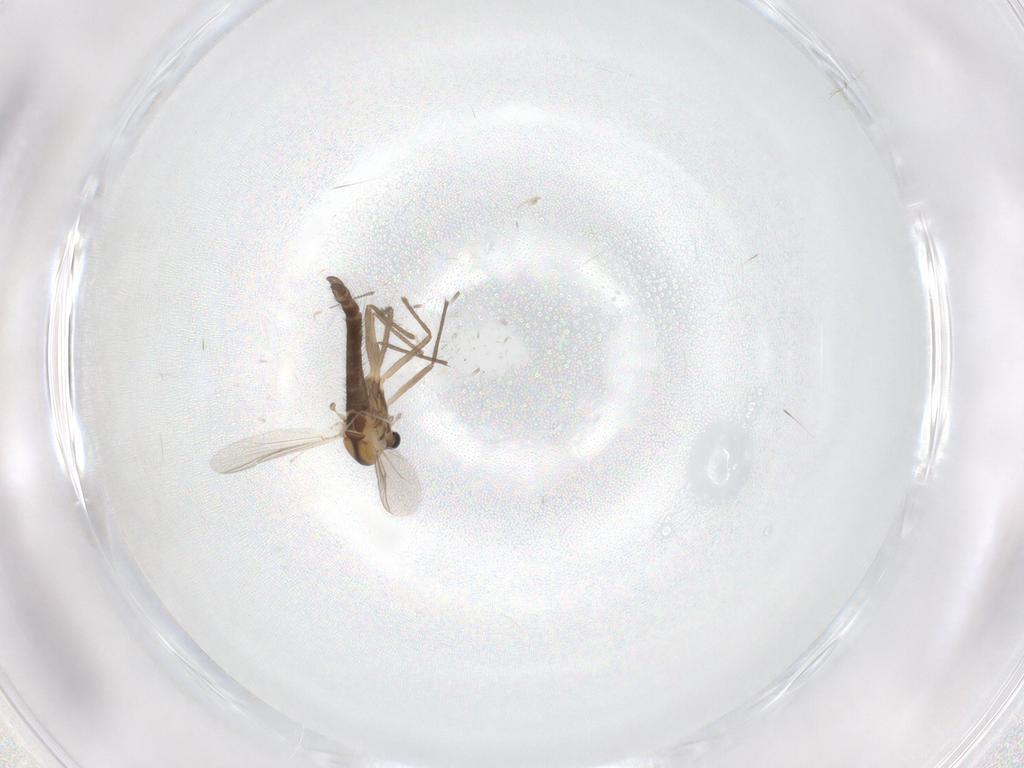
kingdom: Animalia
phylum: Arthropoda
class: Insecta
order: Diptera
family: Chironomidae
